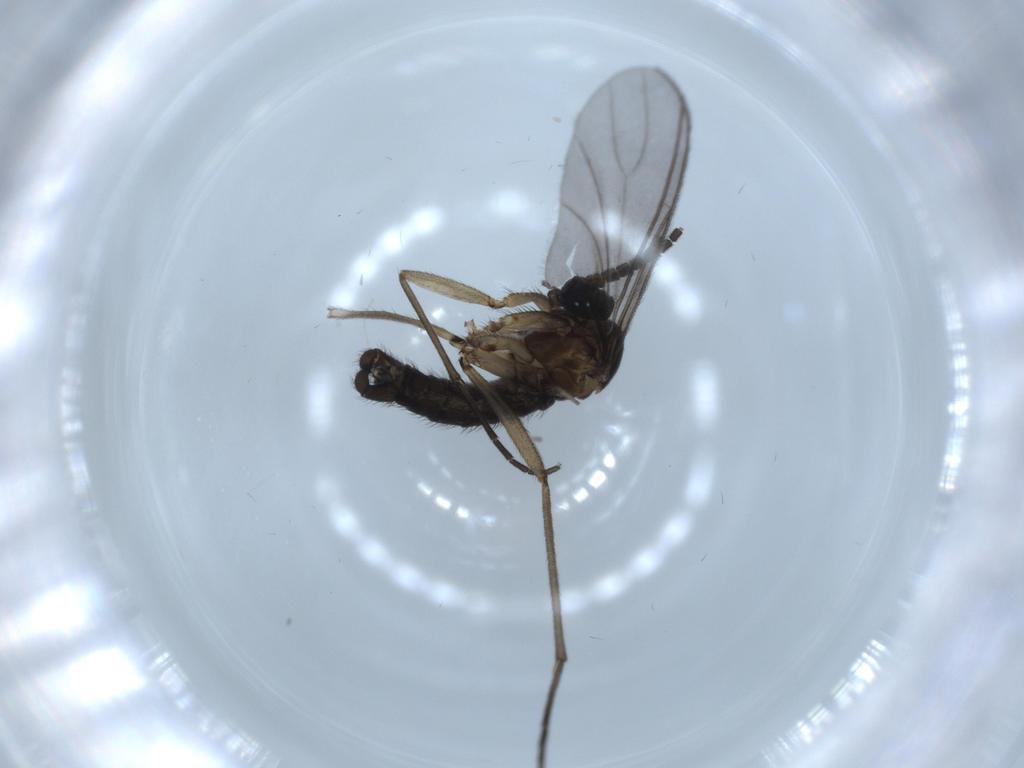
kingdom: Animalia
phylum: Arthropoda
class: Insecta
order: Diptera
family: Sciaridae
